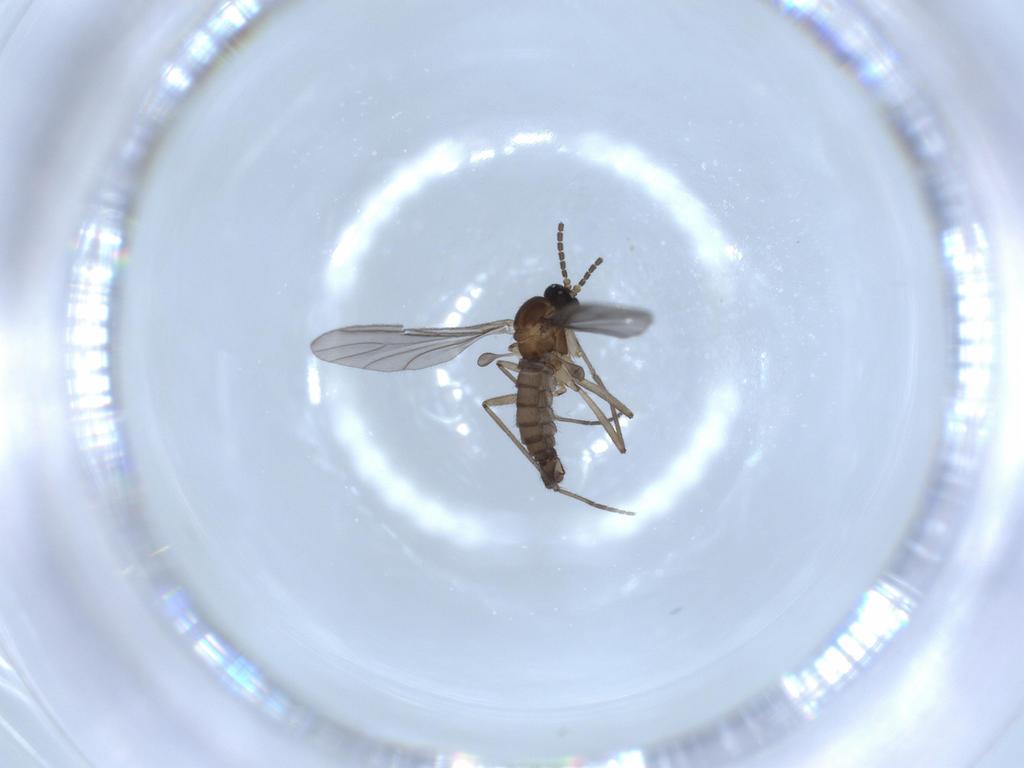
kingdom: Animalia
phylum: Arthropoda
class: Insecta
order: Diptera
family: Sciaridae
